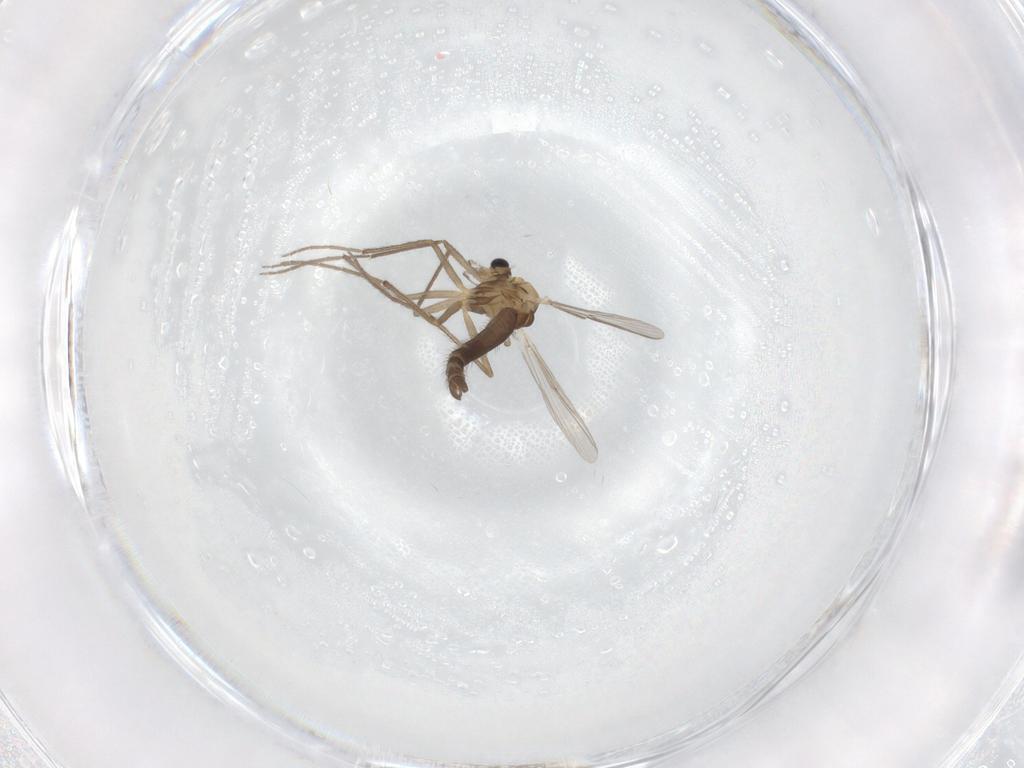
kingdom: Animalia
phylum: Arthropoda
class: Insecta
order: Diptera
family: Chironomidae
